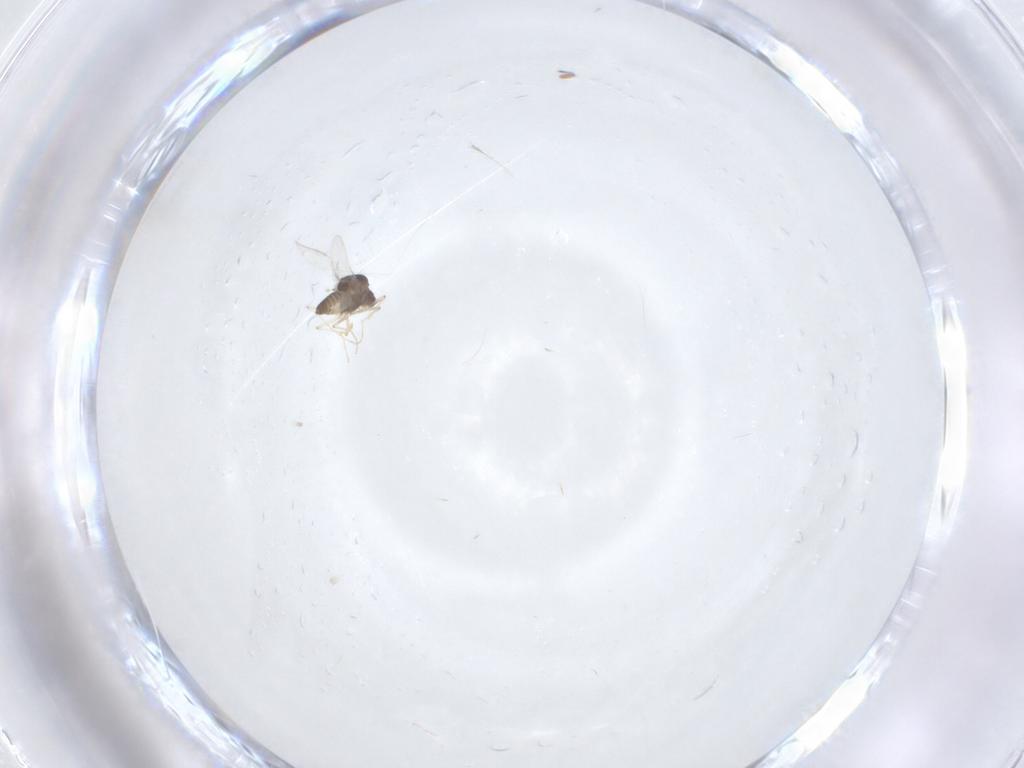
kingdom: Animalia
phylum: Arthropoda
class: Insecta
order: Diptera
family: Chironomidae
